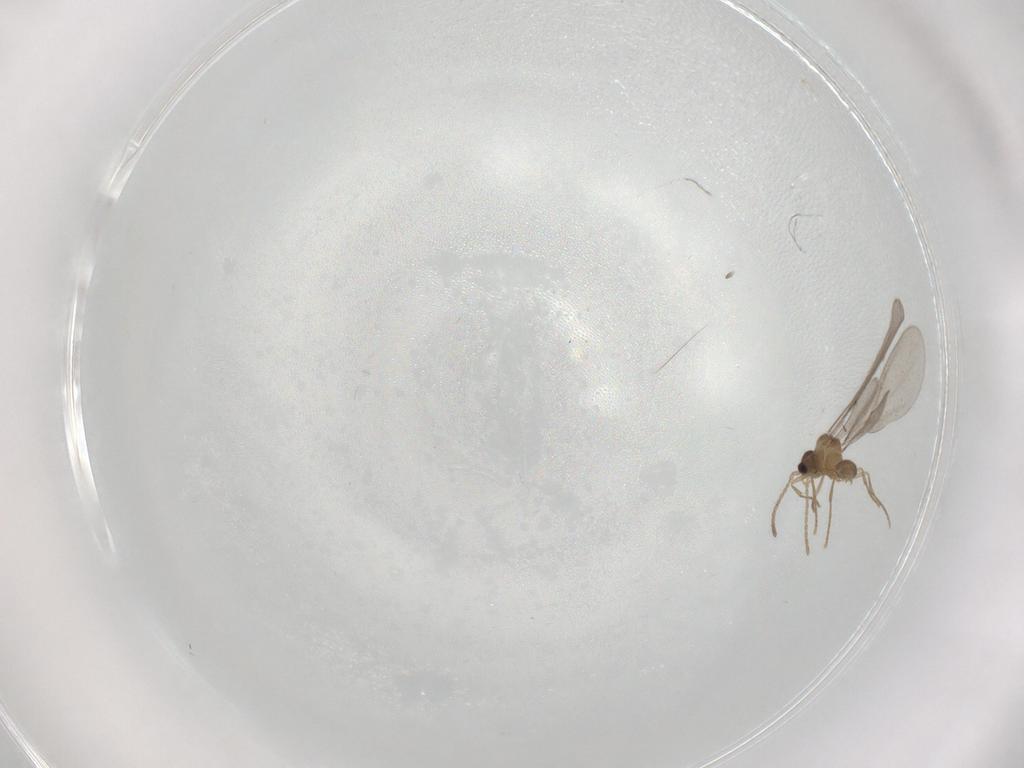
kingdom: Animalia
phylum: Arthropoda
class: Insecta
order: Hymenoptera
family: Formicidae
